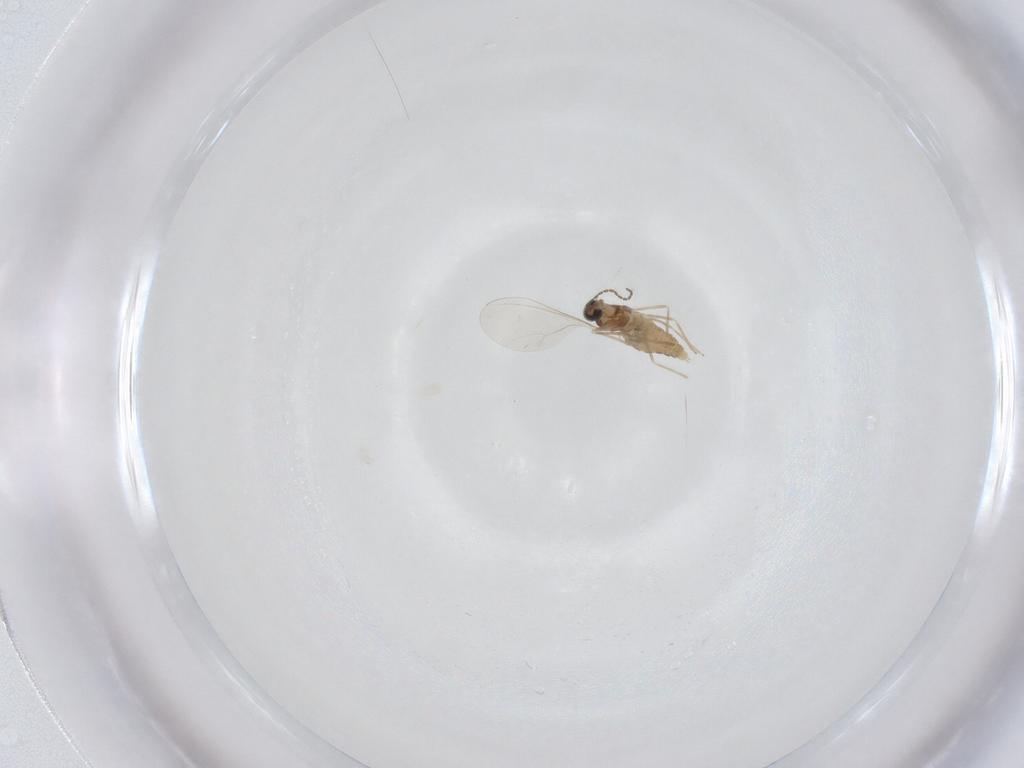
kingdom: Animalia
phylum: Arthropoda
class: Insecta
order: Diptera
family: Cecidomyiidae
